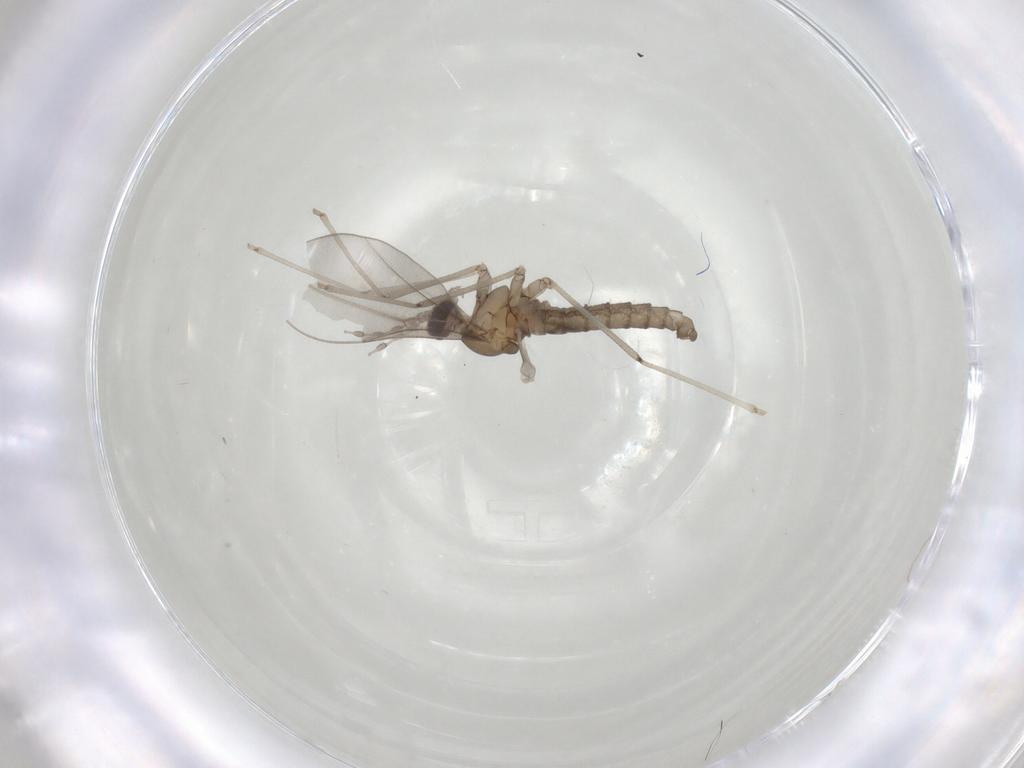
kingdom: Animalia
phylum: Arthropoda
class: Insecta
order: Diptera
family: Cecidomyiidae
